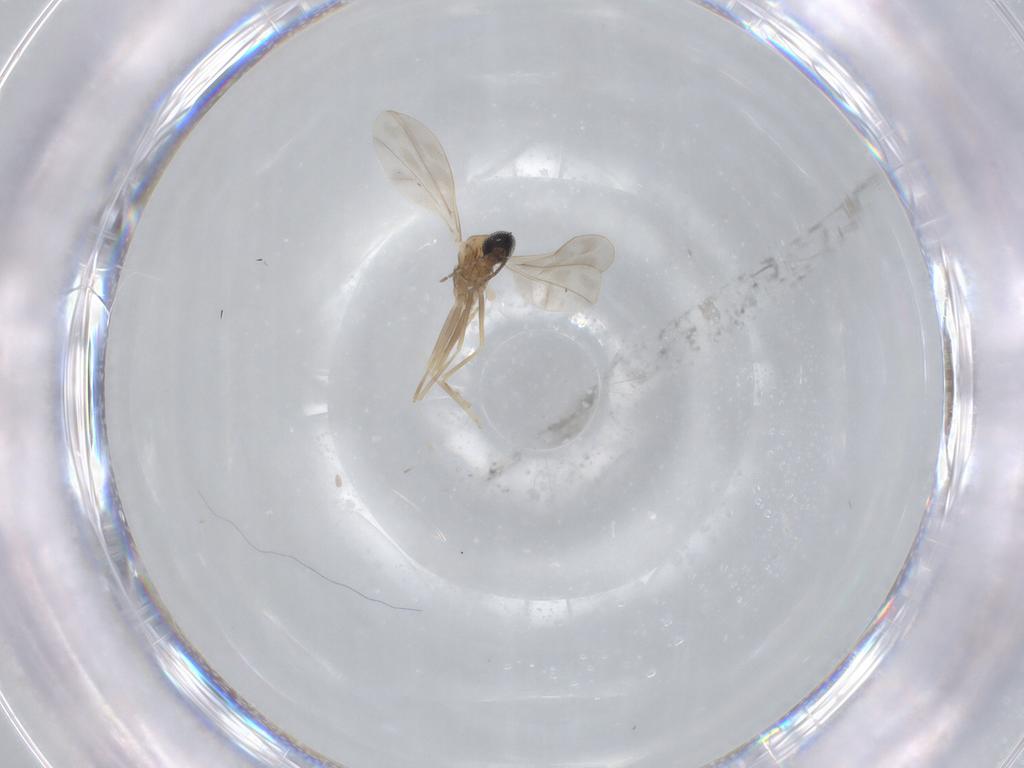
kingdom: Animalia
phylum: Arthropoda
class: Insecta
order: Diptera
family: Cecidomyiidae
